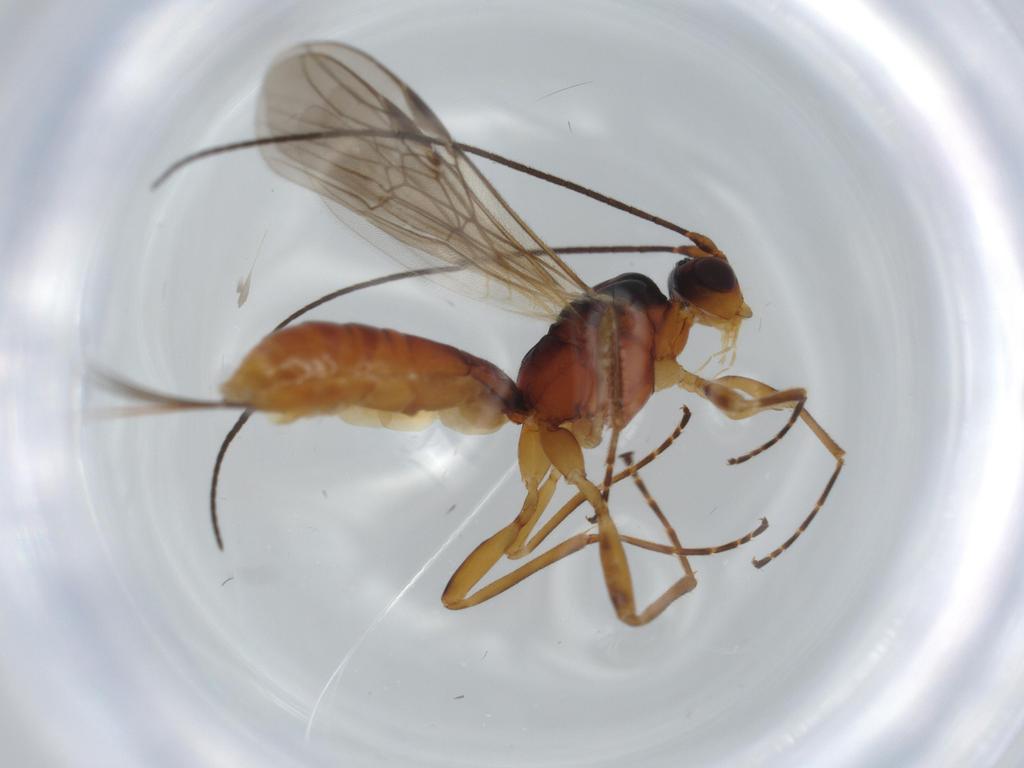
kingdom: Animalia
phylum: Arthropoda
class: Insecta
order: Hymenoptera
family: Diparidae
